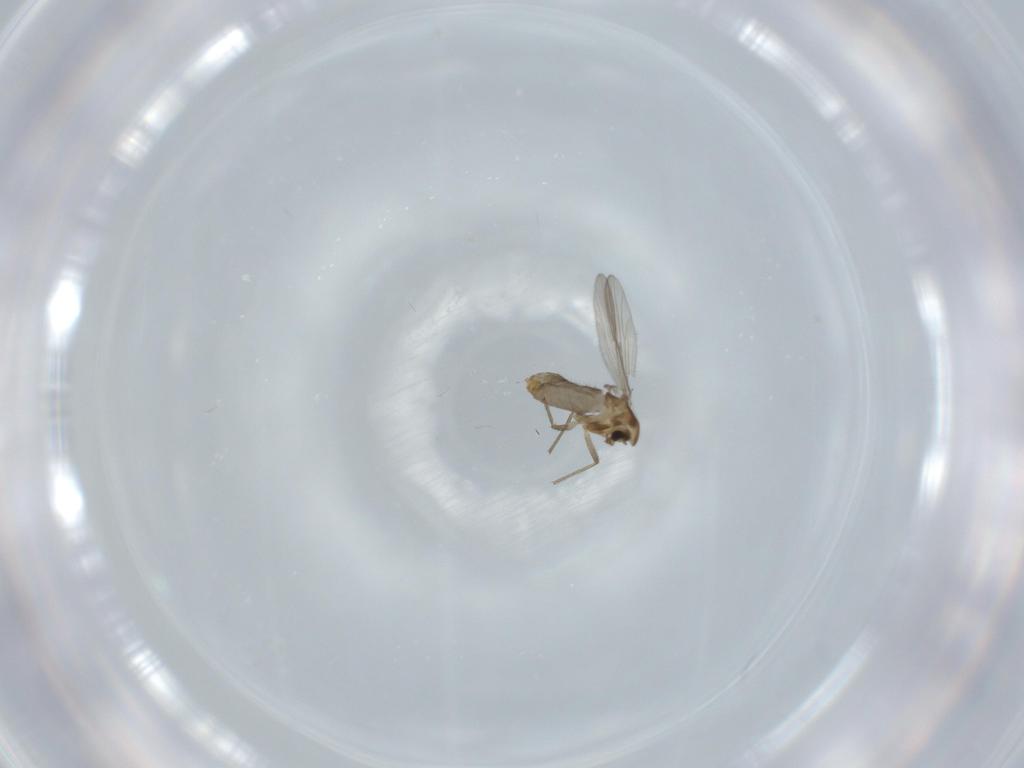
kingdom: Animalia
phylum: Arthropoda
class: Insecta
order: Diptera
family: Chironomidae
